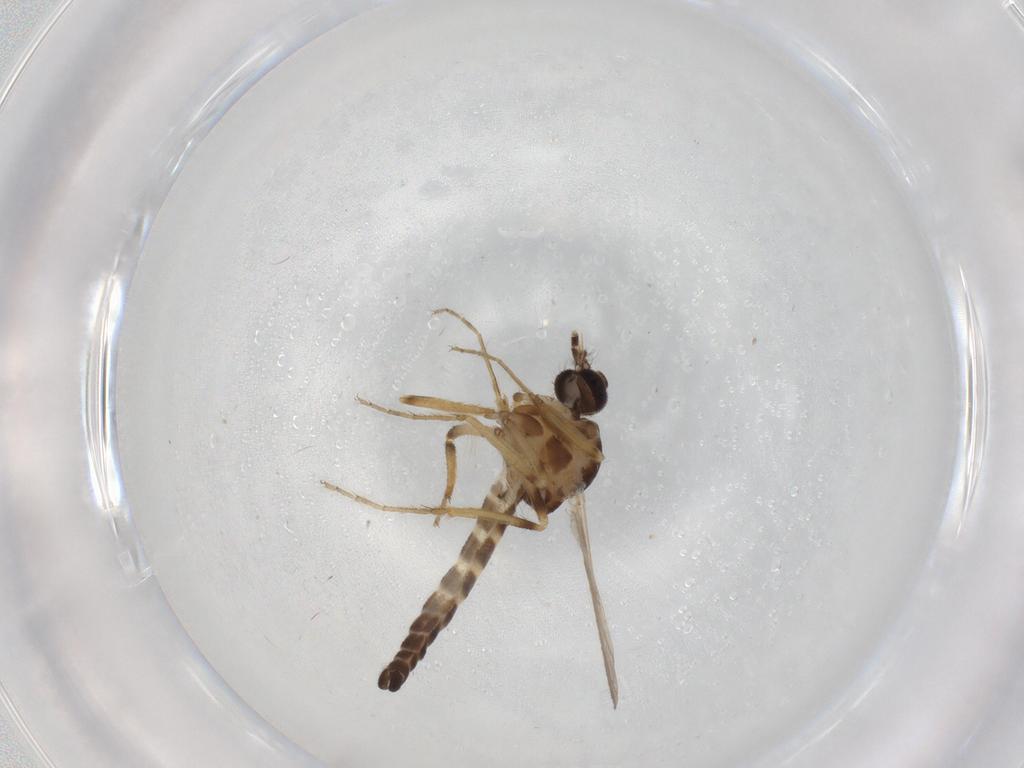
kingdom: Animalia
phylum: Arthropoda
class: Insecta
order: Diptera
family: Ceratopogonidae
